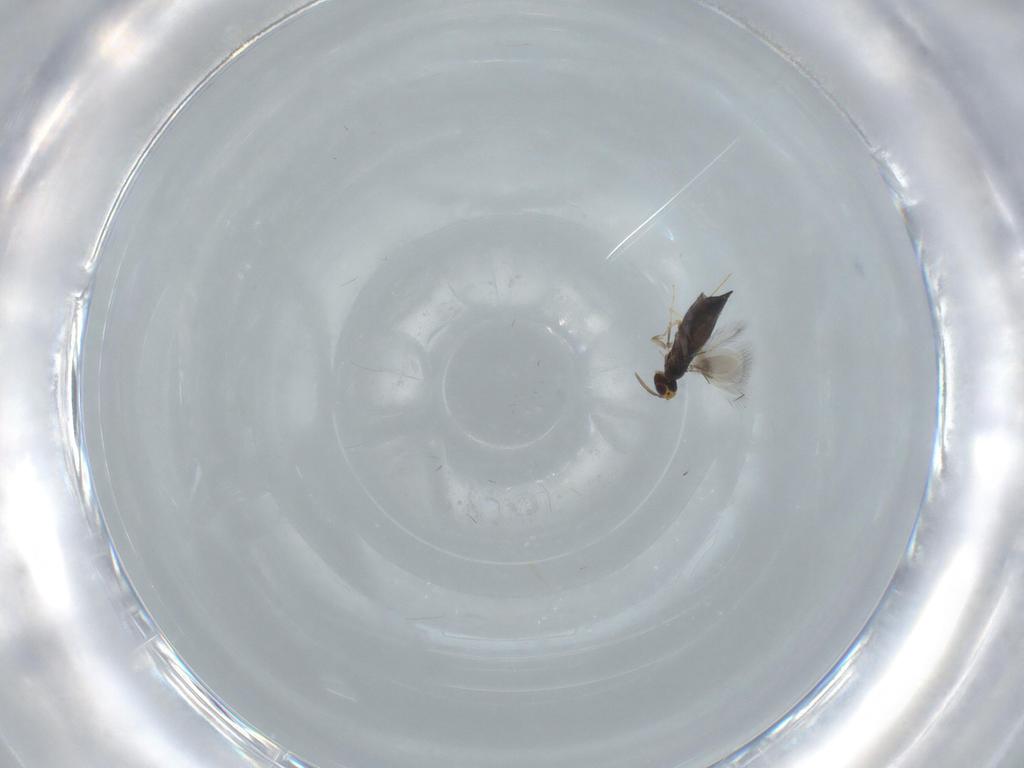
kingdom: Animalia
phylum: Arthropoda
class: Insecta
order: Hymenoptera
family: Signiphoridae
